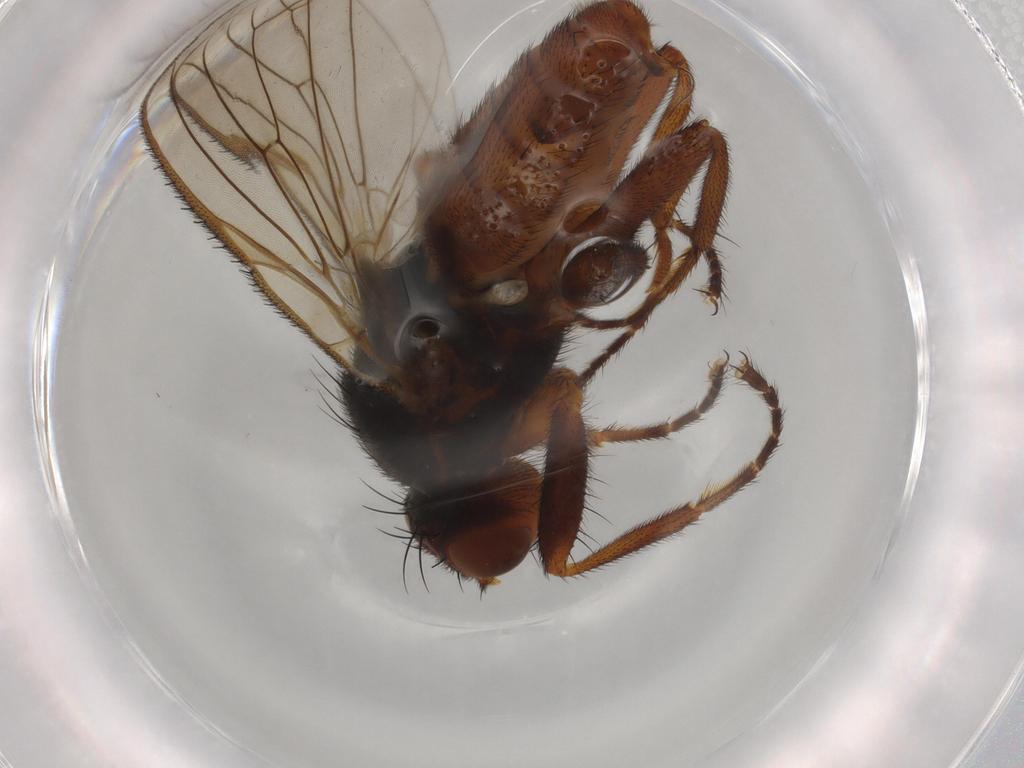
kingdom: Animalia
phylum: Arthropoda
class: Insecta
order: Diptera
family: Heleomyzidae
